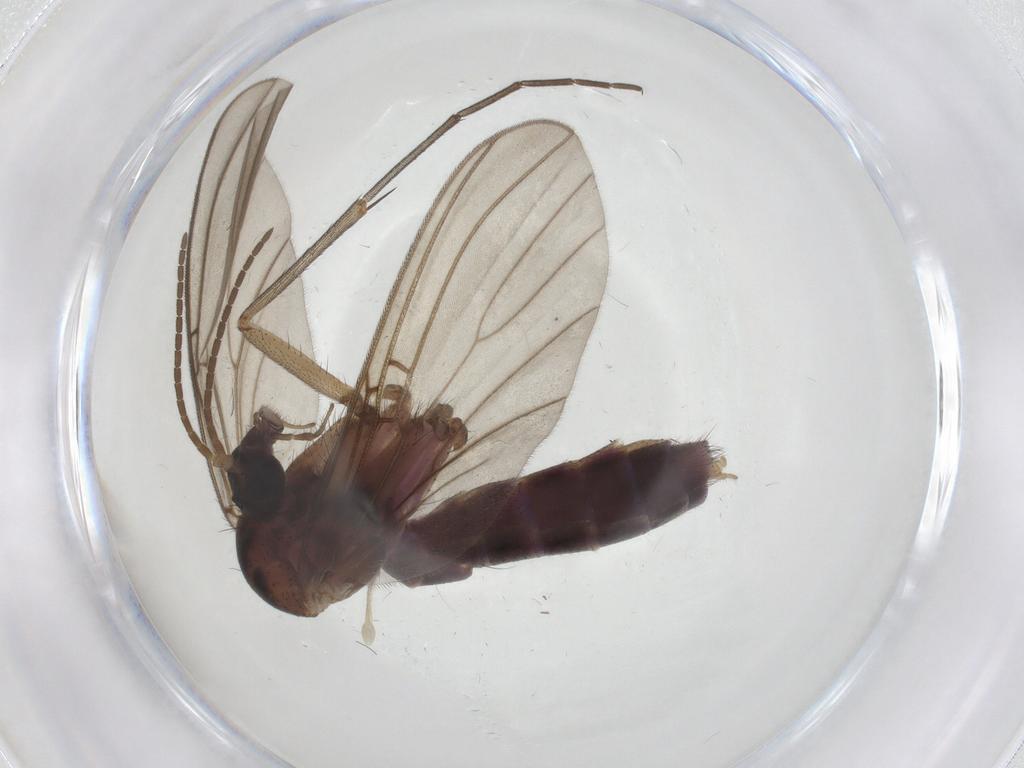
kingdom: Animalia
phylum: Arthropoda
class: Insecta
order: Diptera
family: Mycetophilidae
